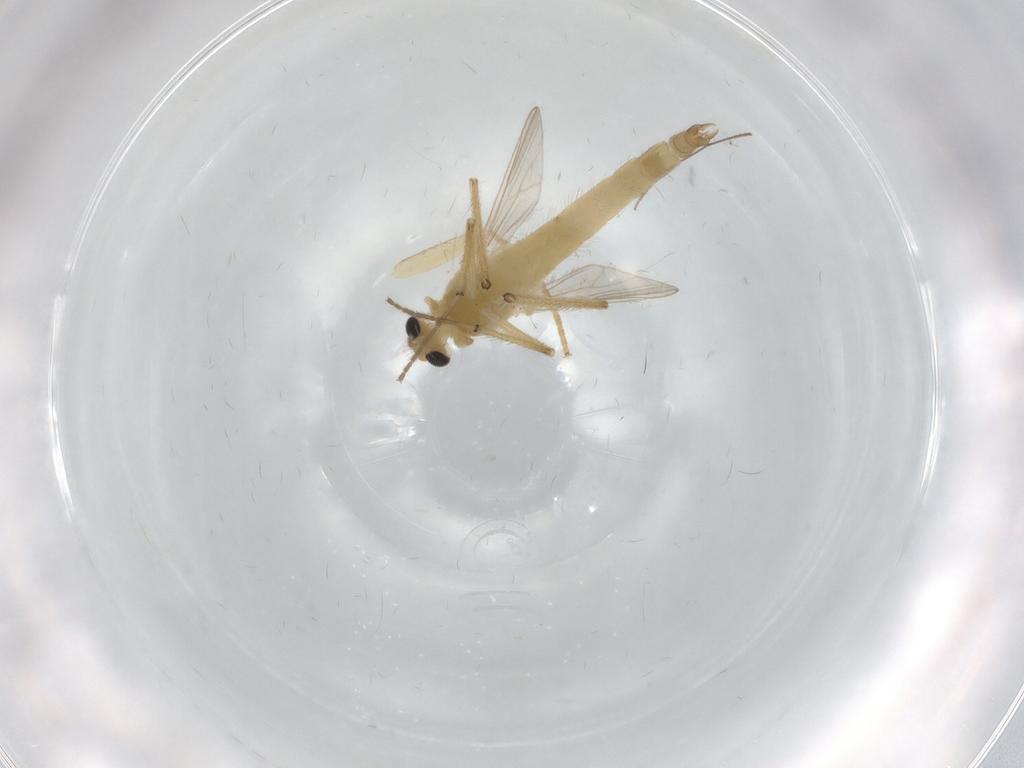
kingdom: Animalia
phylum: Arthropoda
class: Insecta
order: Diptera
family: Chironomidae
